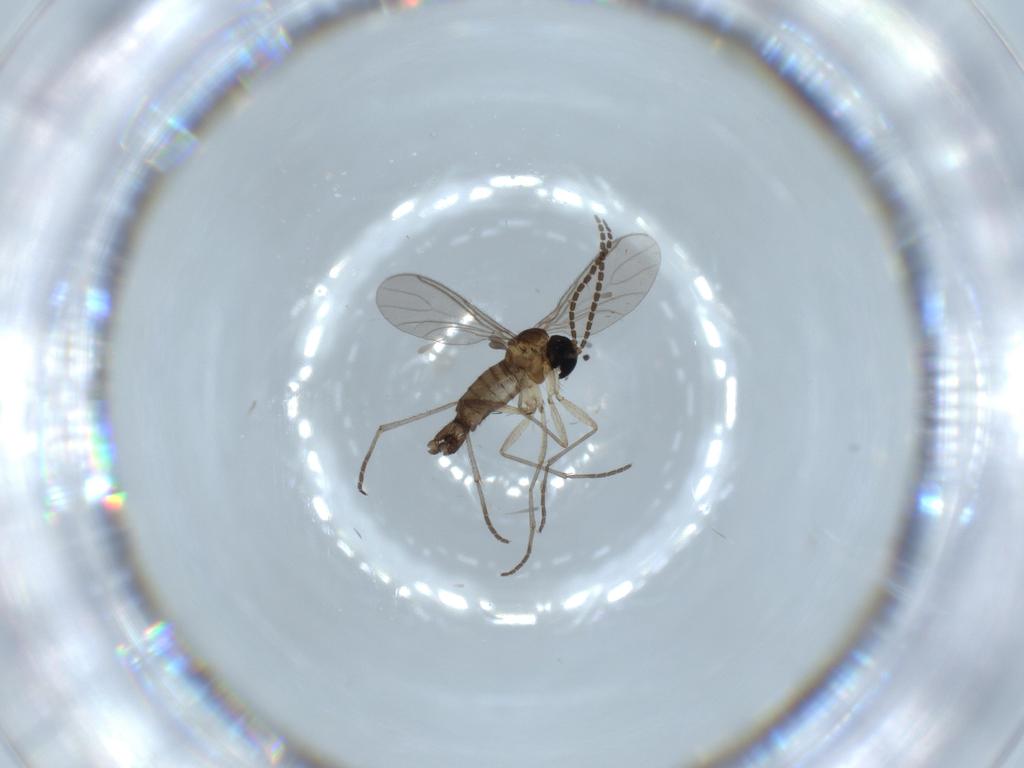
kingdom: Animalia
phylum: Arthropoda
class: Insecta
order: Diptera
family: Sciaridae
